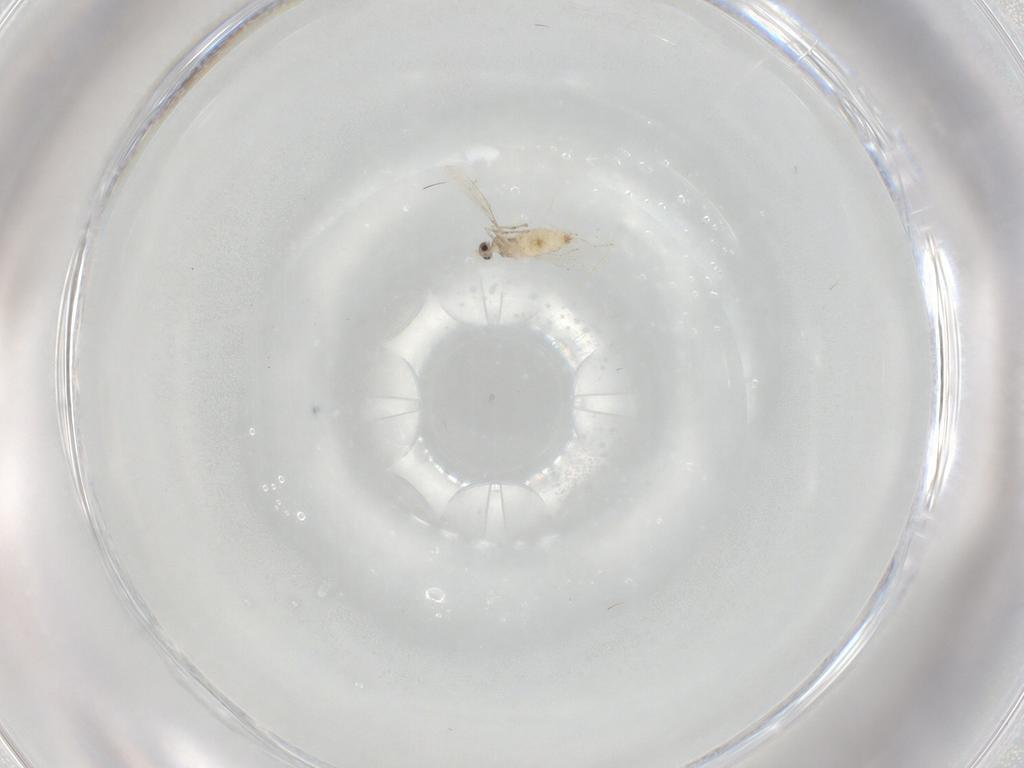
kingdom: Animalia
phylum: Arthropoda
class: Insecta
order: Diptera
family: Cecidomyiidae
